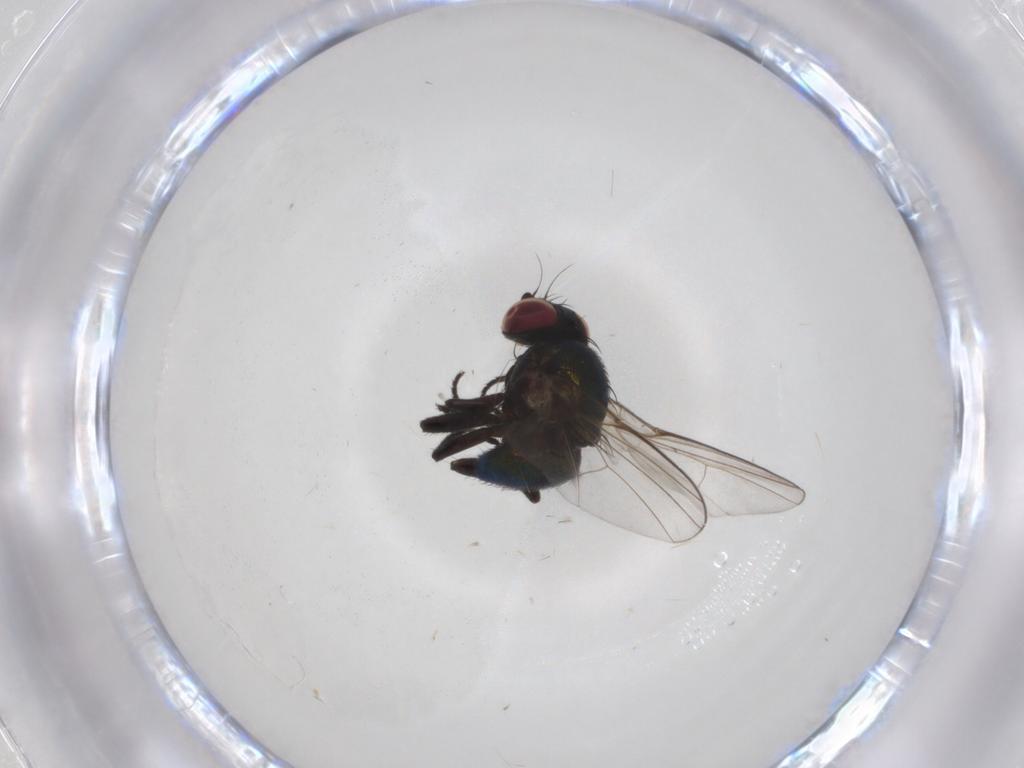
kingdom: Animalia
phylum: Arthropoda
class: Insecta
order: Diptera
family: Agromyzidae
